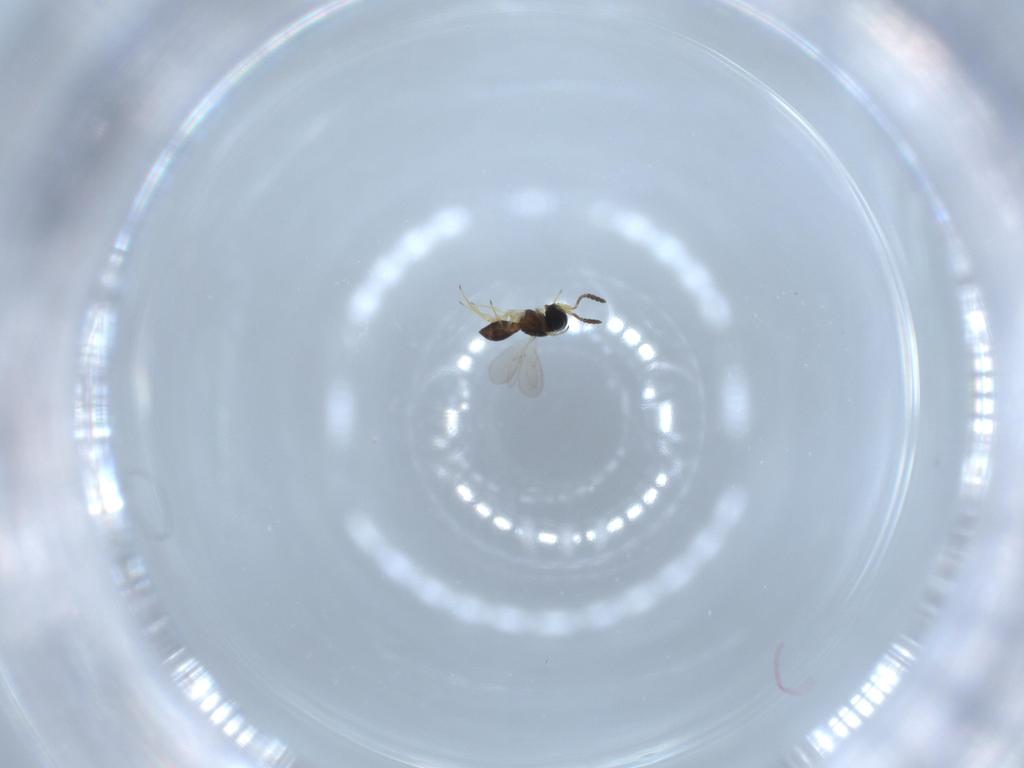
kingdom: Animalia
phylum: Arthropoda
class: Insecta
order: Hymenoptera
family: Scelionidae
